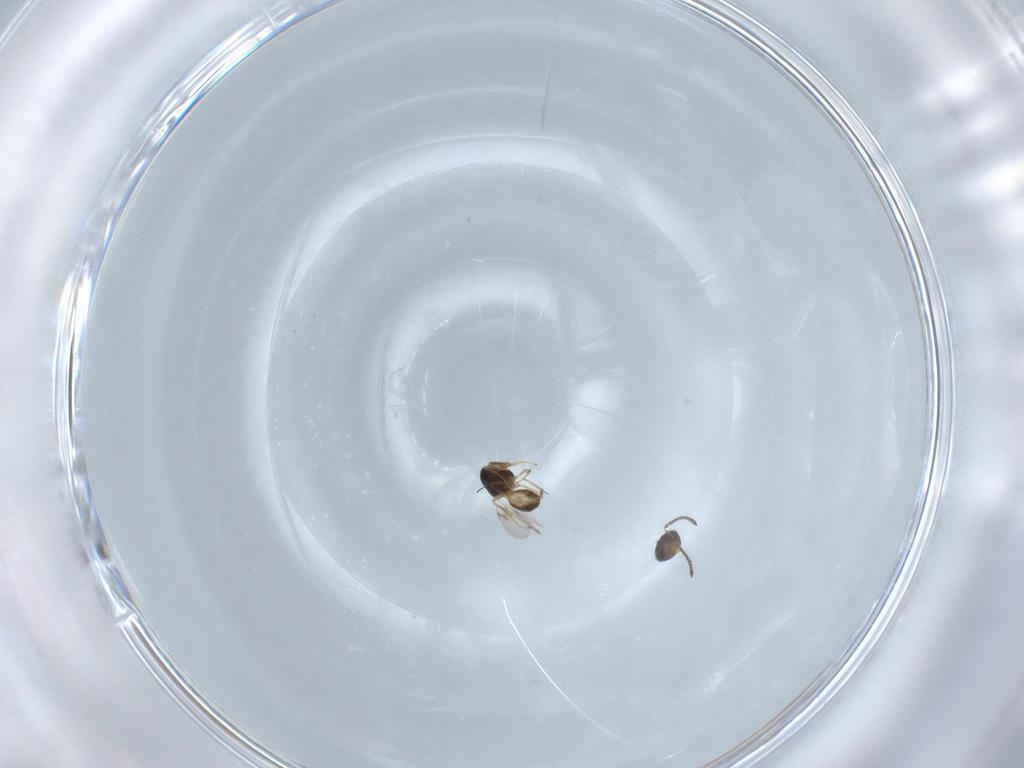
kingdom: Animalia
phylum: Arthropoda
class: Insecta
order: Hymenoptera
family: Scelionidae
